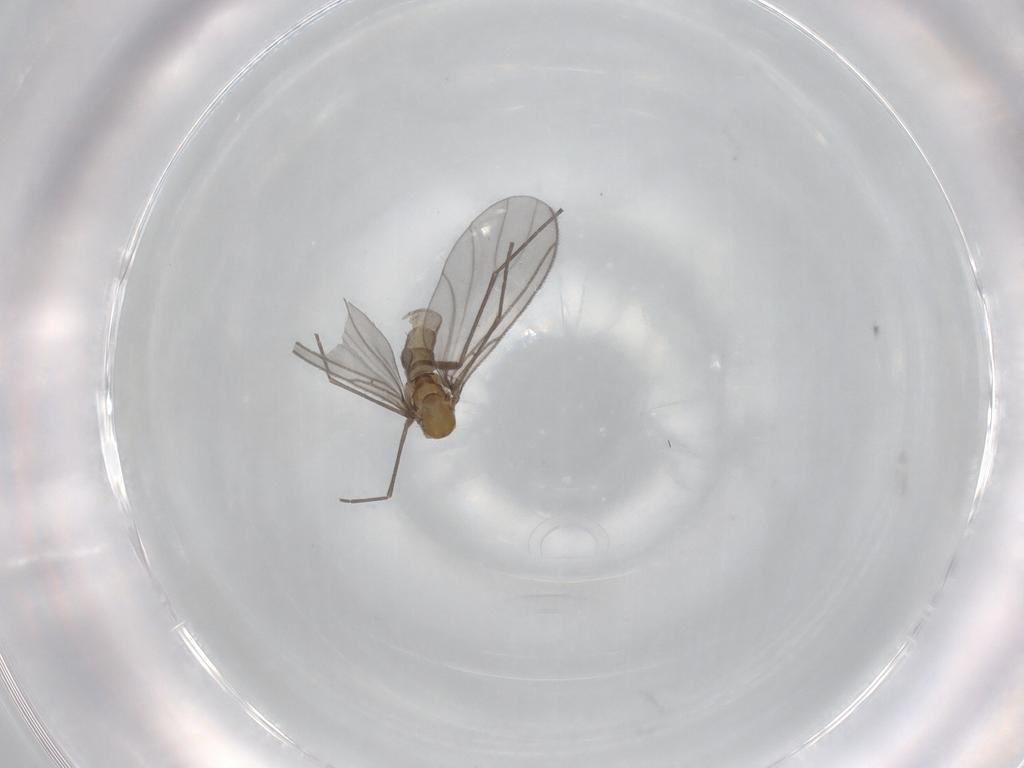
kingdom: Animalia
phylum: Arthropoda
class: Insecta
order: Diptera
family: Sciaridae
